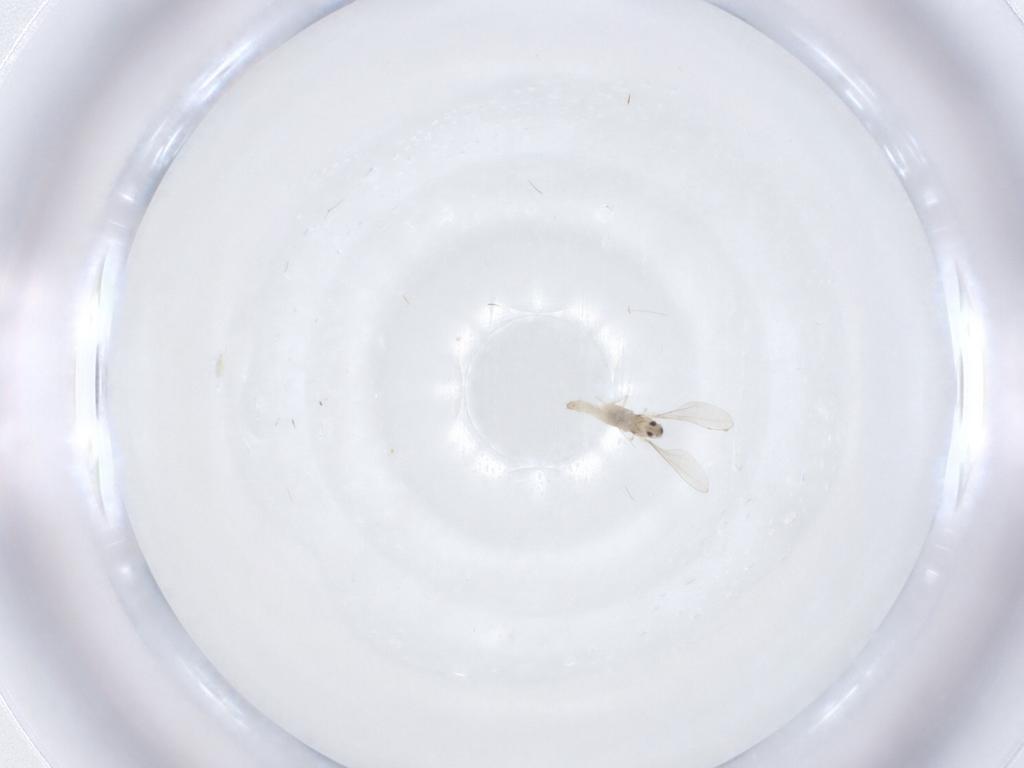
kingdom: Animalia
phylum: Arthropoda
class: Insecta
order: Diptera
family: Cecidomyiidae
